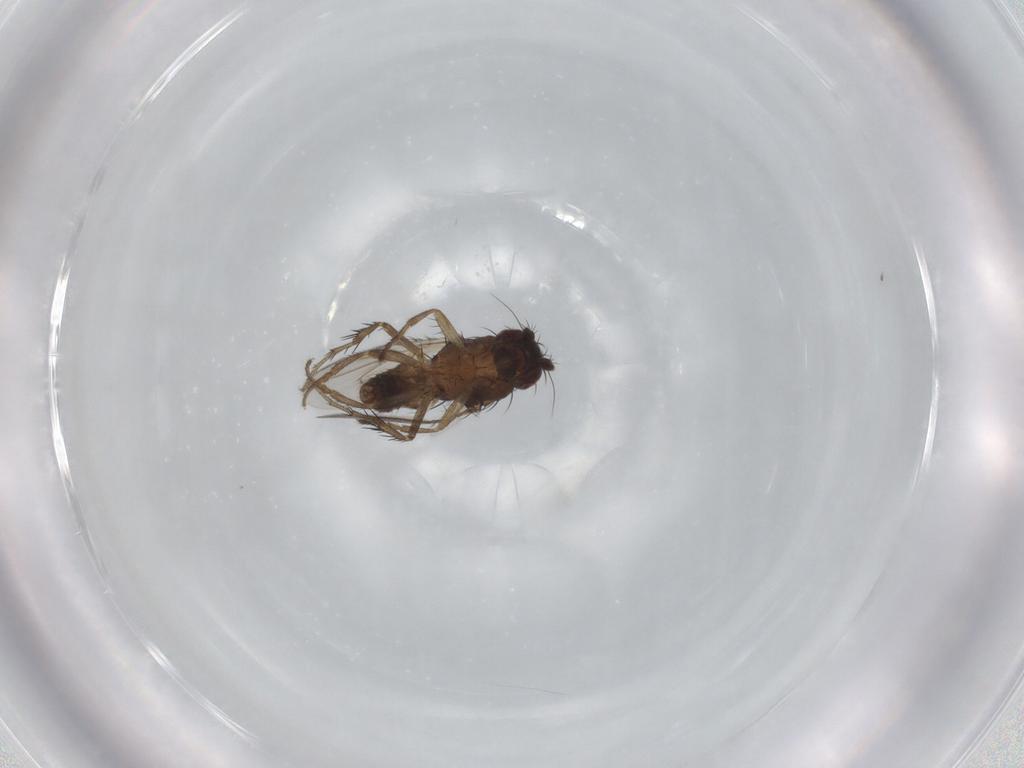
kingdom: Animalia
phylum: Arthropoda
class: Insecta
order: Diptera
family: Sphaeroceridae
